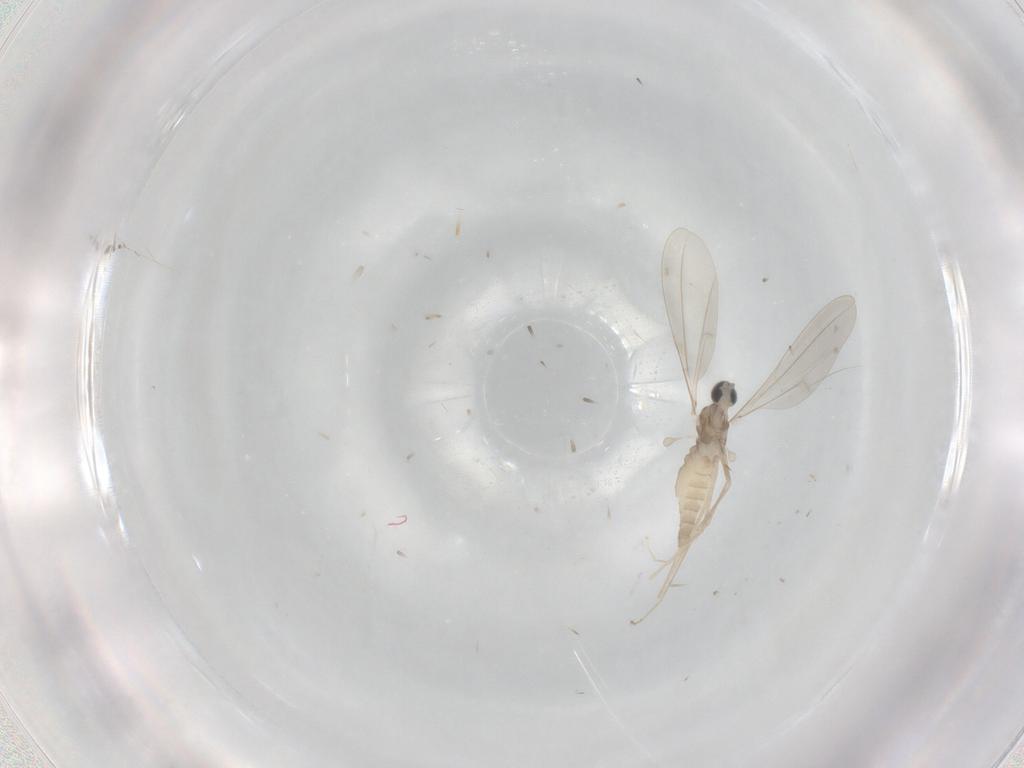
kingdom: Animalia
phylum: Arthropoda
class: Insecta
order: Diptera
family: Cecidomyiidae
